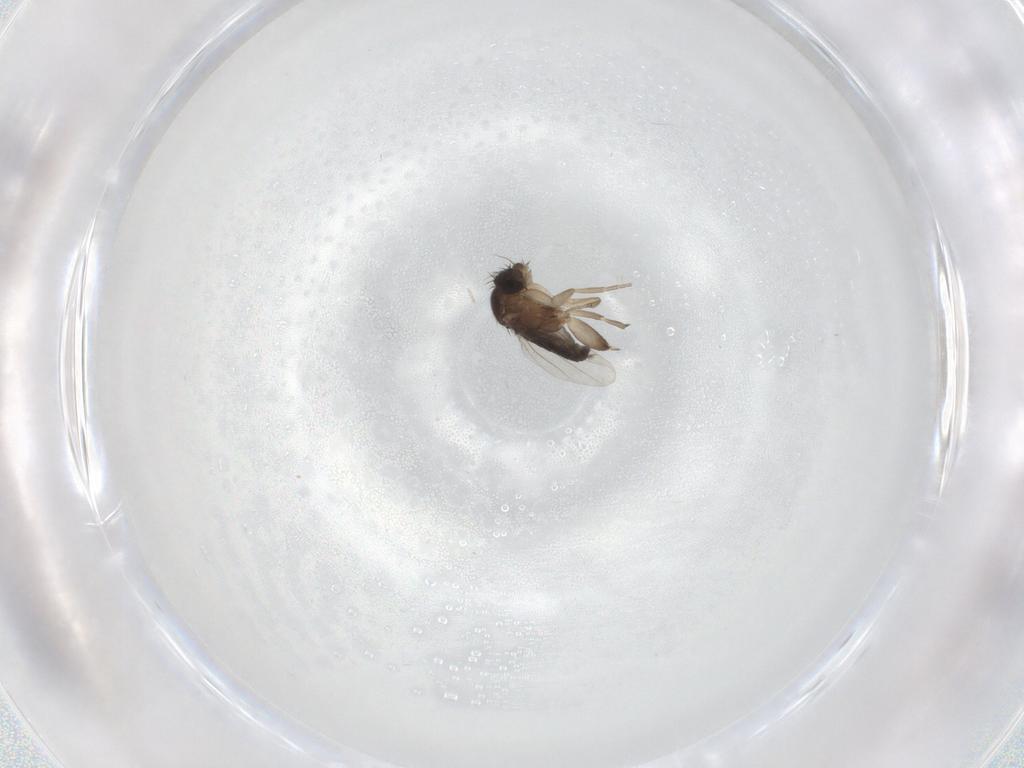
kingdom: Animalia
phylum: Arthropoda
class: Insecta
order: Diptera
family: Phoridae
